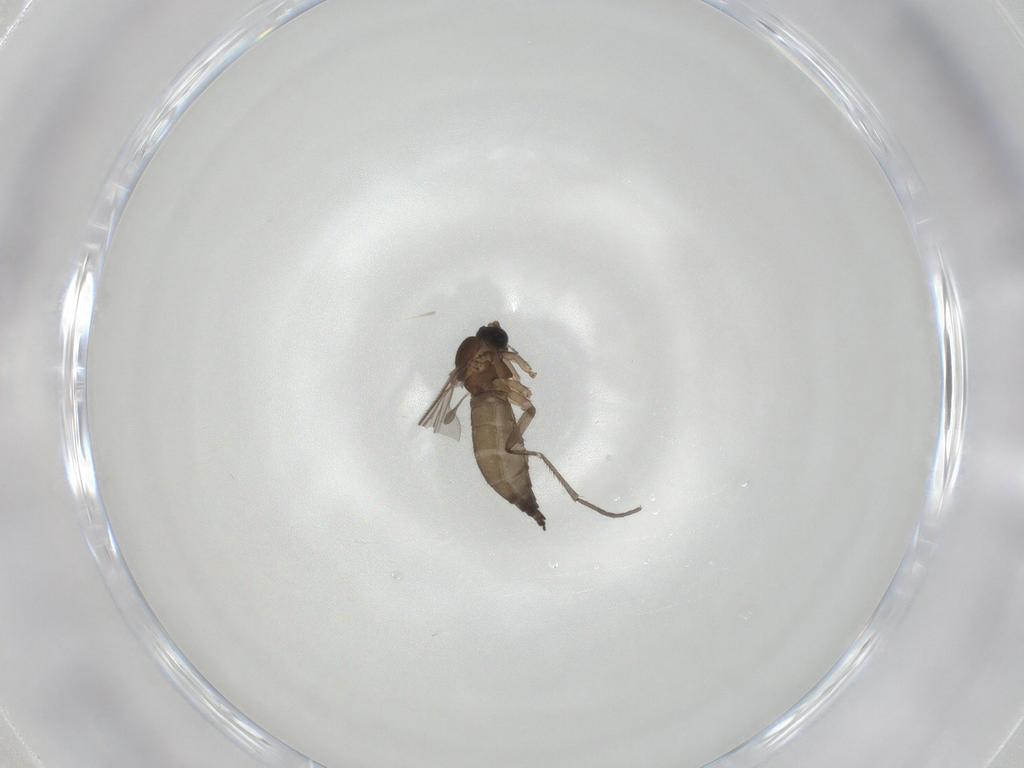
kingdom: Animalia
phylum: Arthropoda
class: Insecta
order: Diptera
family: Sciaridae
